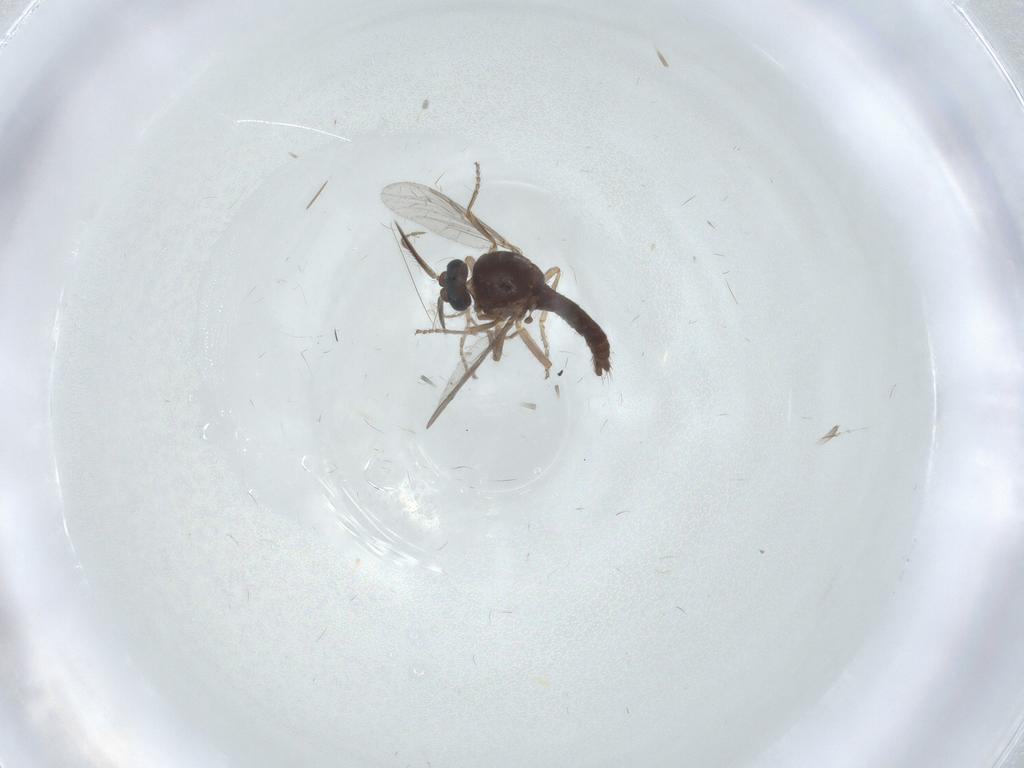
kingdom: Animalia
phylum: Arthropoda
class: Insecta
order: Diptera
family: Ceratopogonidae
